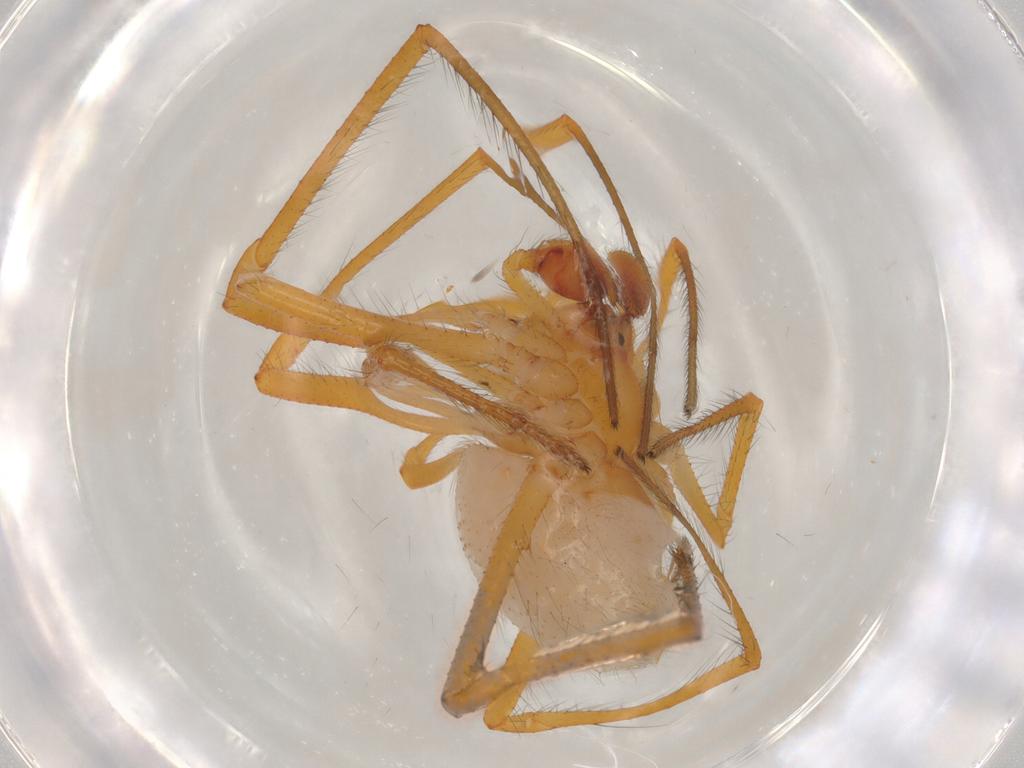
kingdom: Animalia
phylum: Arthropoda
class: Arachnida
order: Araneae
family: Theridiidae
